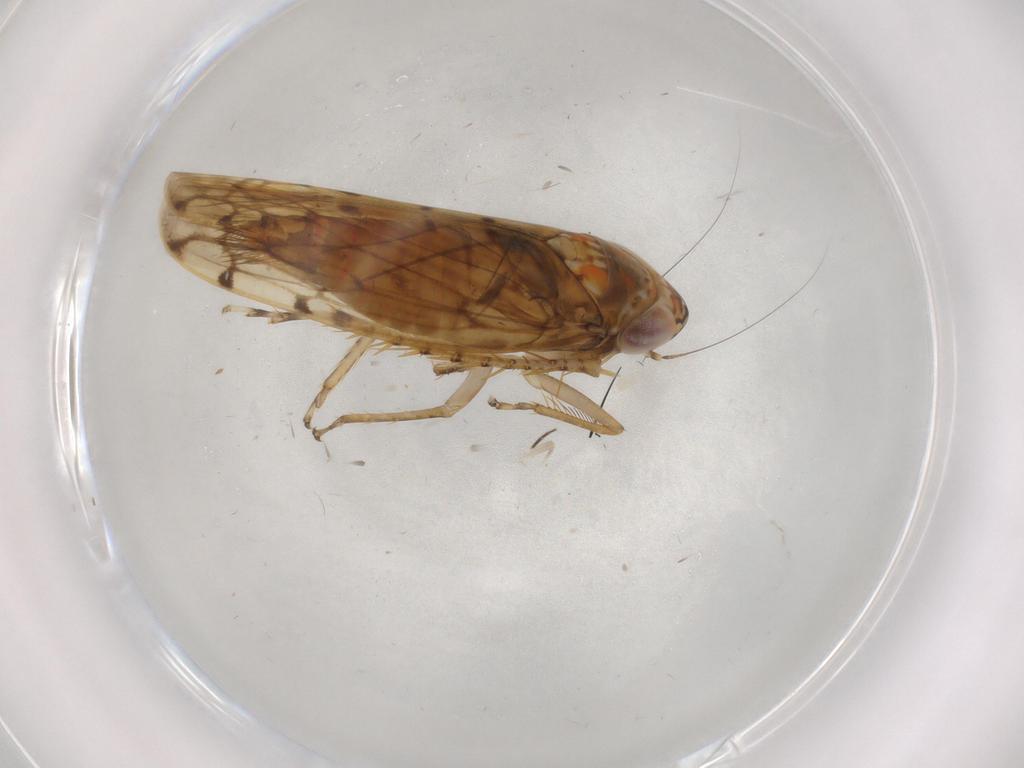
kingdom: Animalia
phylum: Arthropoda
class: Insecta
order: Hemiptera
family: Cicadellidae
